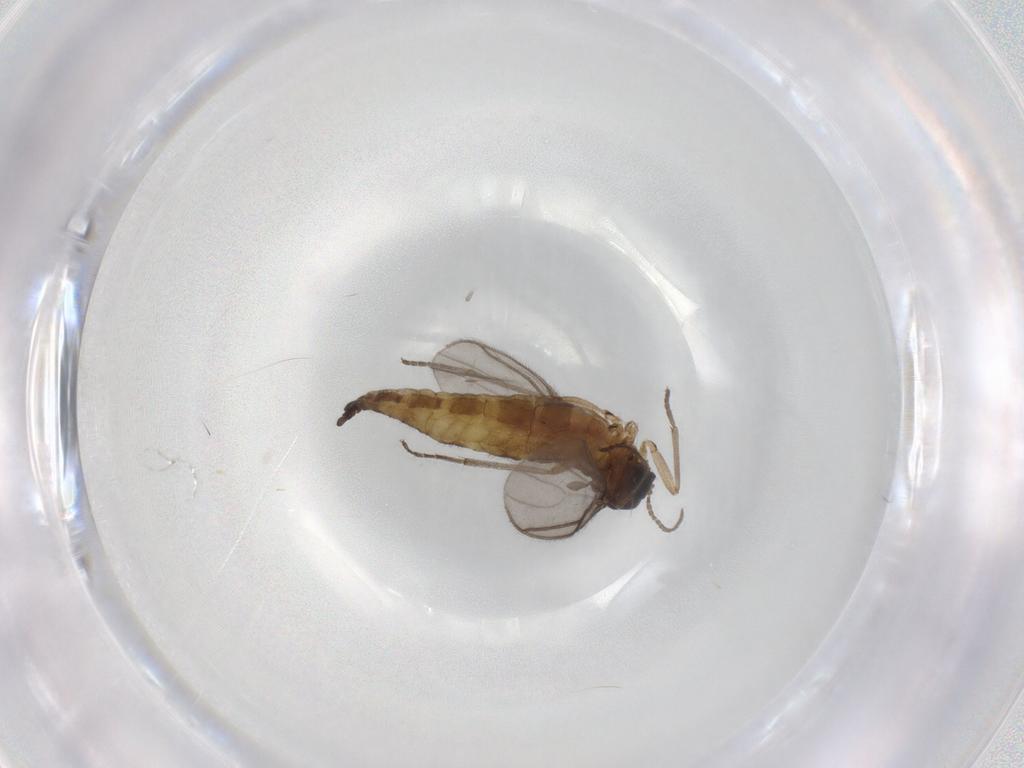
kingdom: Animalia
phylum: Arthropoda
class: Insecta
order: Diptera
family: Sciaridae
